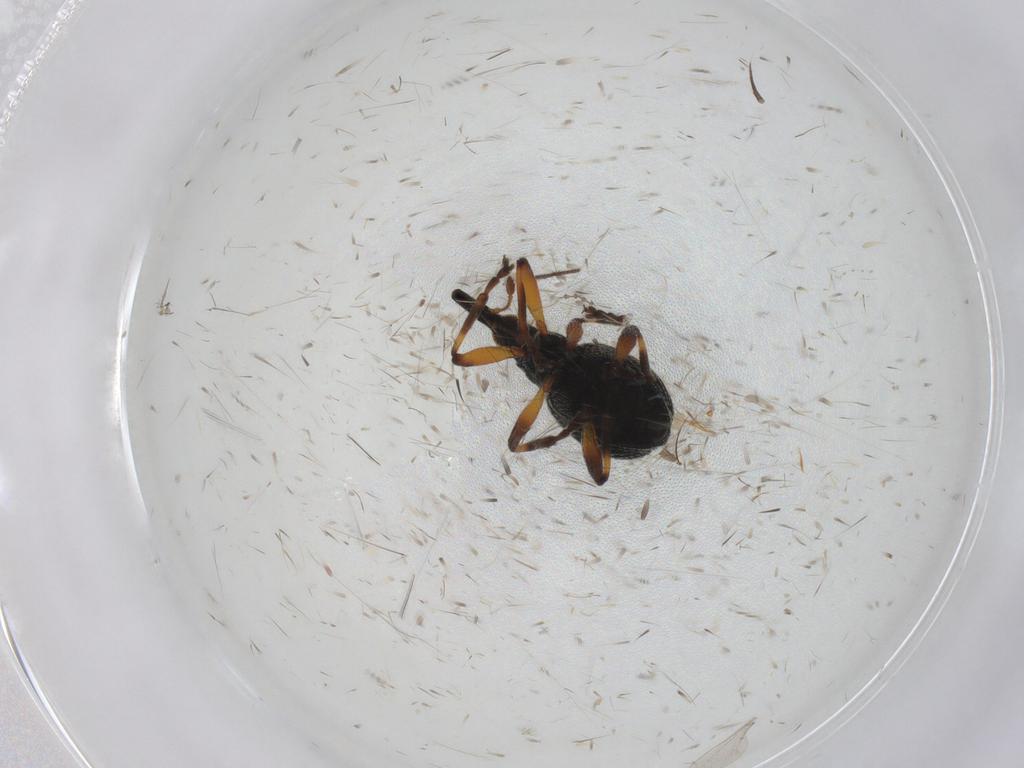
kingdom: Animalia
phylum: Arthropoda
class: Insecta
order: Coleoptera
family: Brentidae
